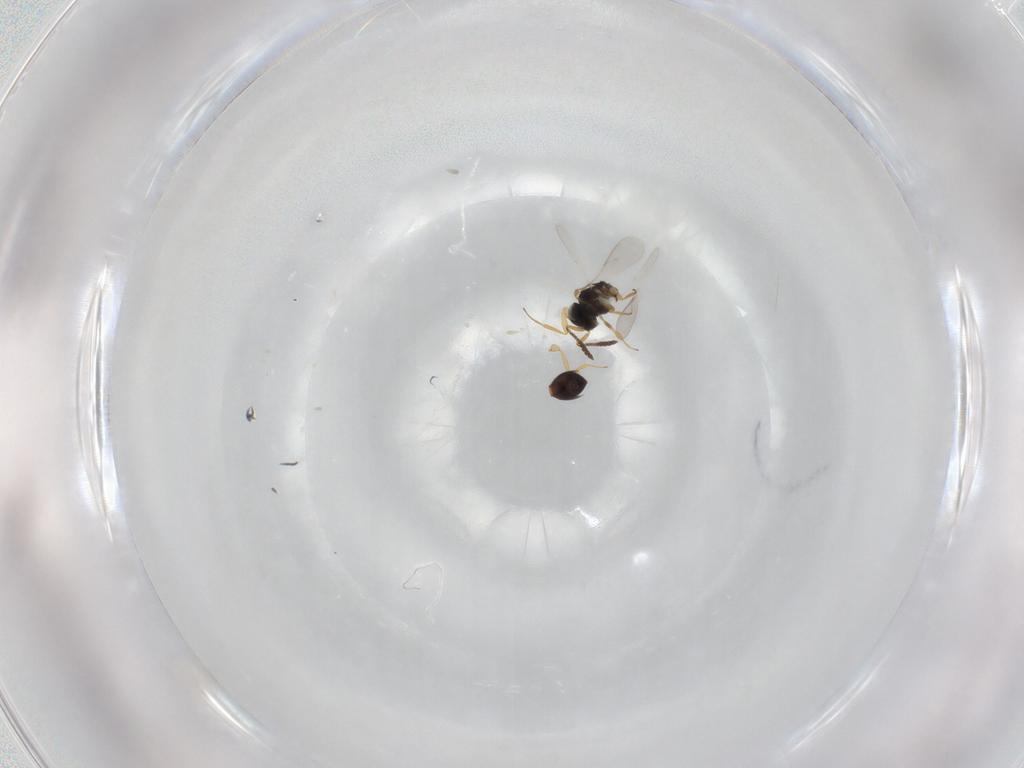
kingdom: Animalia
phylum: Arthropoda
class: Insecta
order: Hymenoptera
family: Scelionidae
